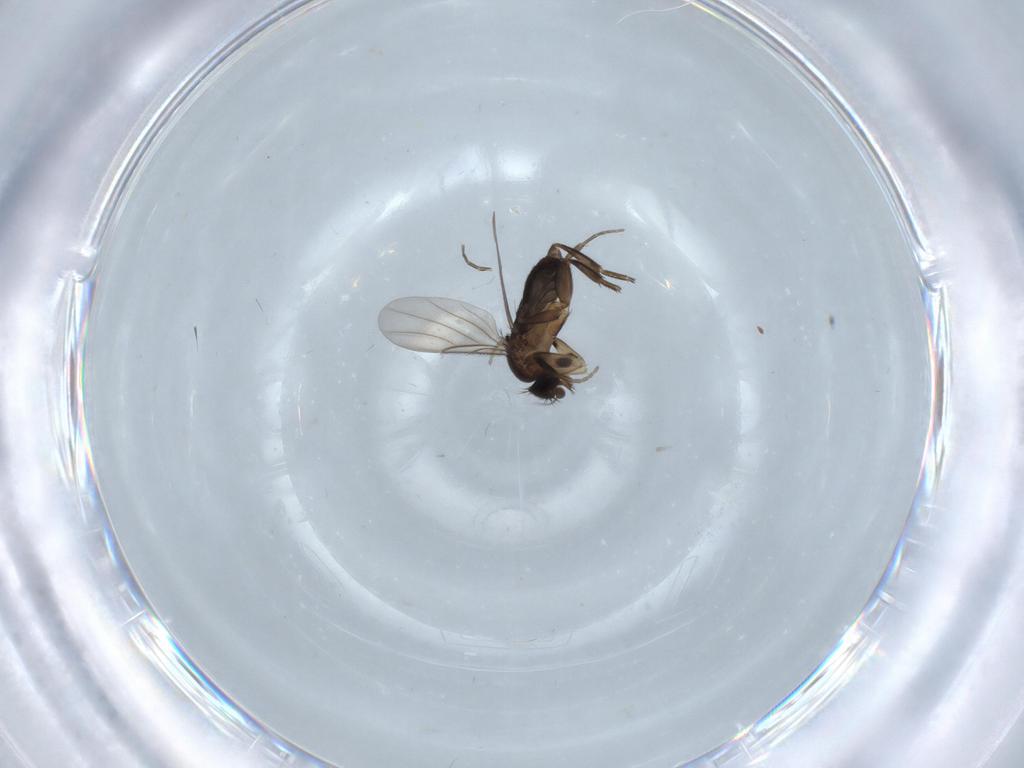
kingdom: Animalia
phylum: Arthropoda
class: Insecta
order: Diptera
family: Phoridae
